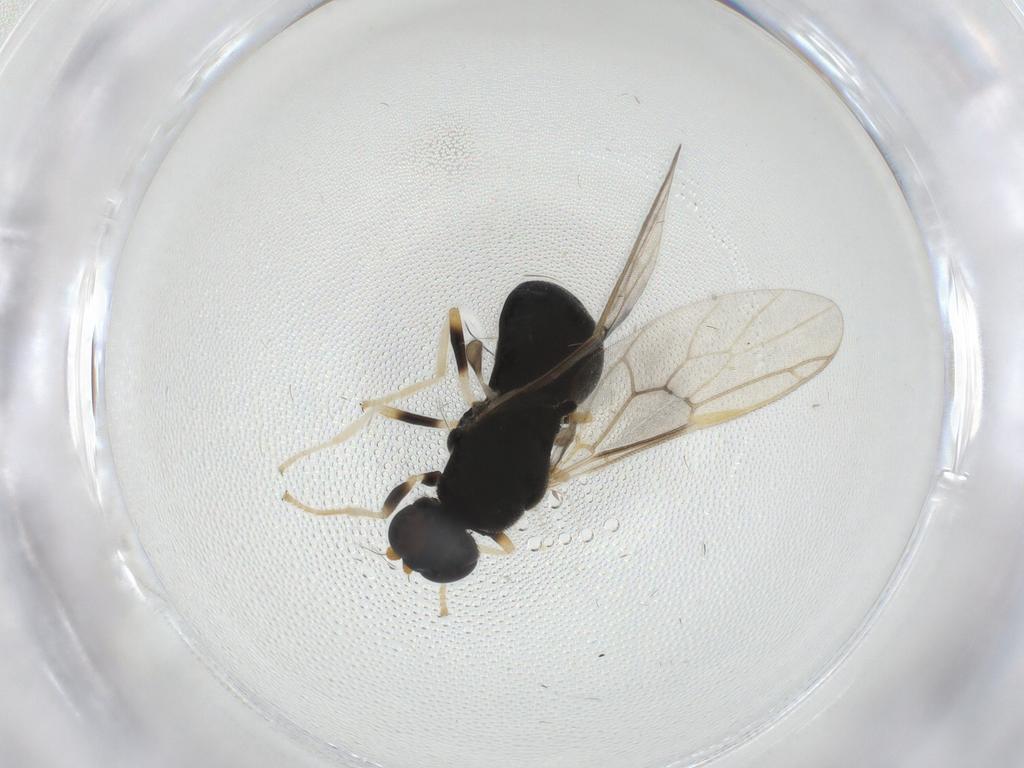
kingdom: Animalia
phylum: Arthropoda
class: Insecta
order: Diptera
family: Stratiomyidae
